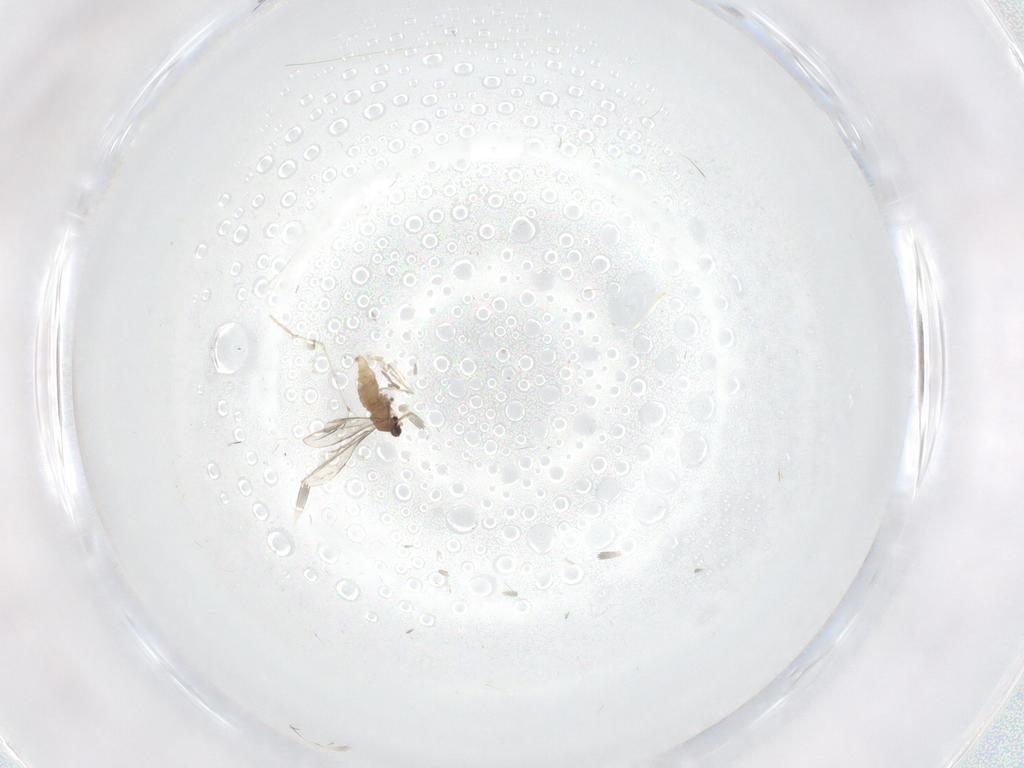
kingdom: Animalia
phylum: Arthropoda
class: Insecta
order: Diptera
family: Cecidomyiidae
